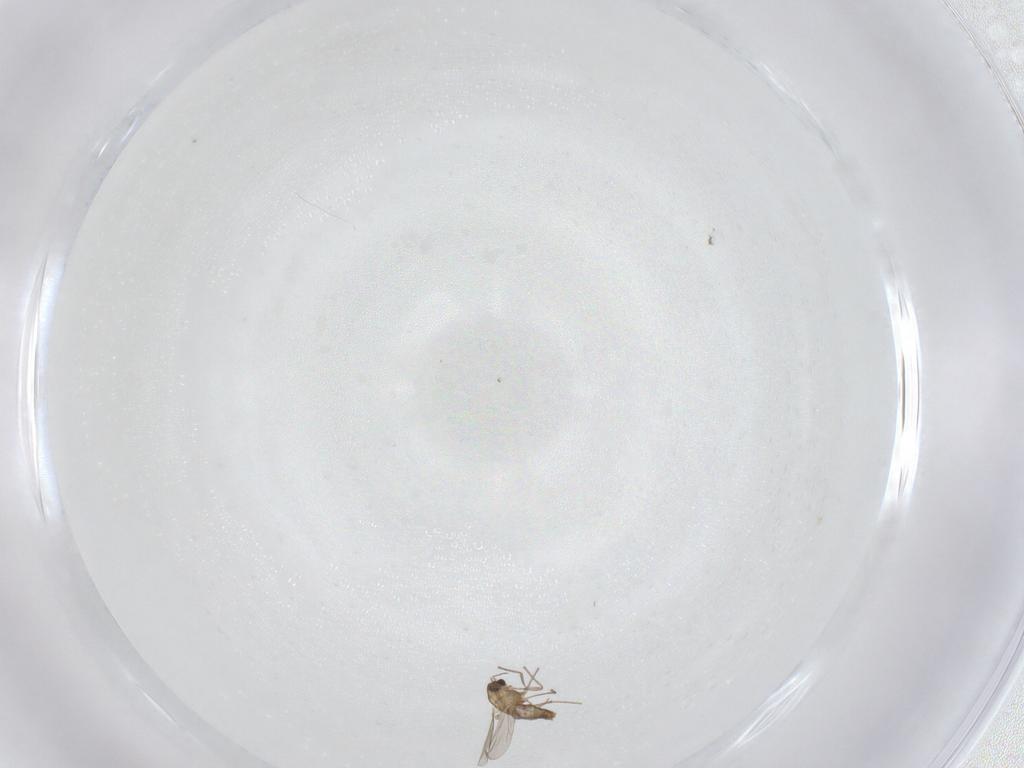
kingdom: Animalia
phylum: Arthropoda
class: Insecta
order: Diptera
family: Chironomidae
